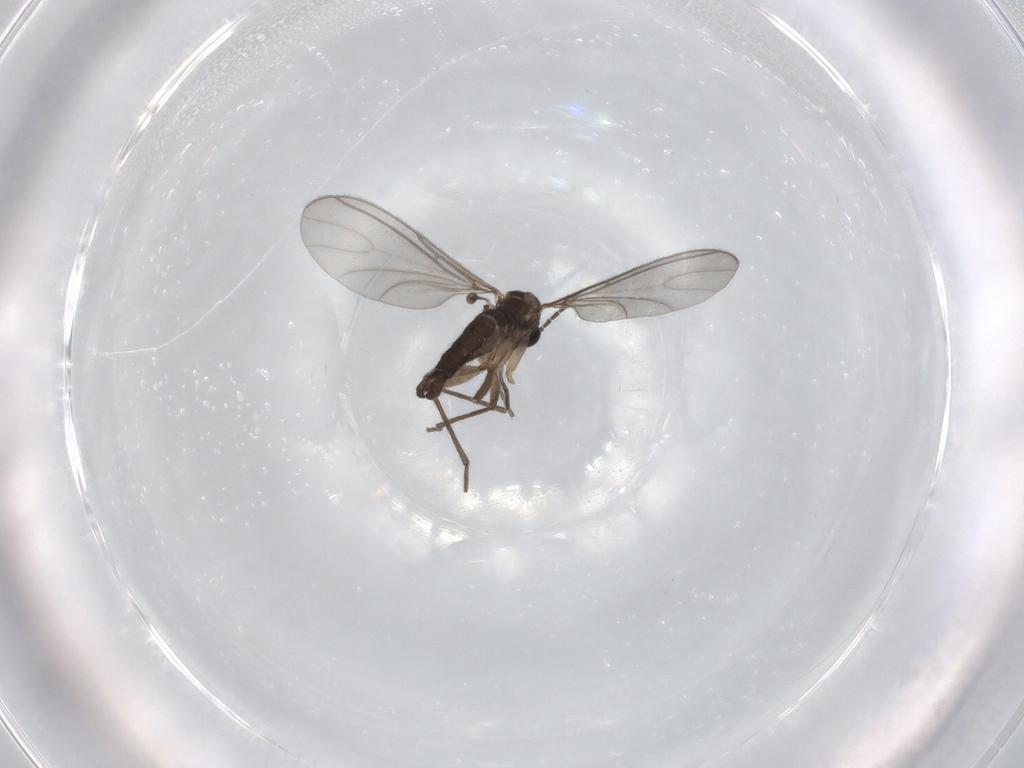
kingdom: Animalia
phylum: Arthropoda
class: Insecta
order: Diptera
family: Sciaridae
